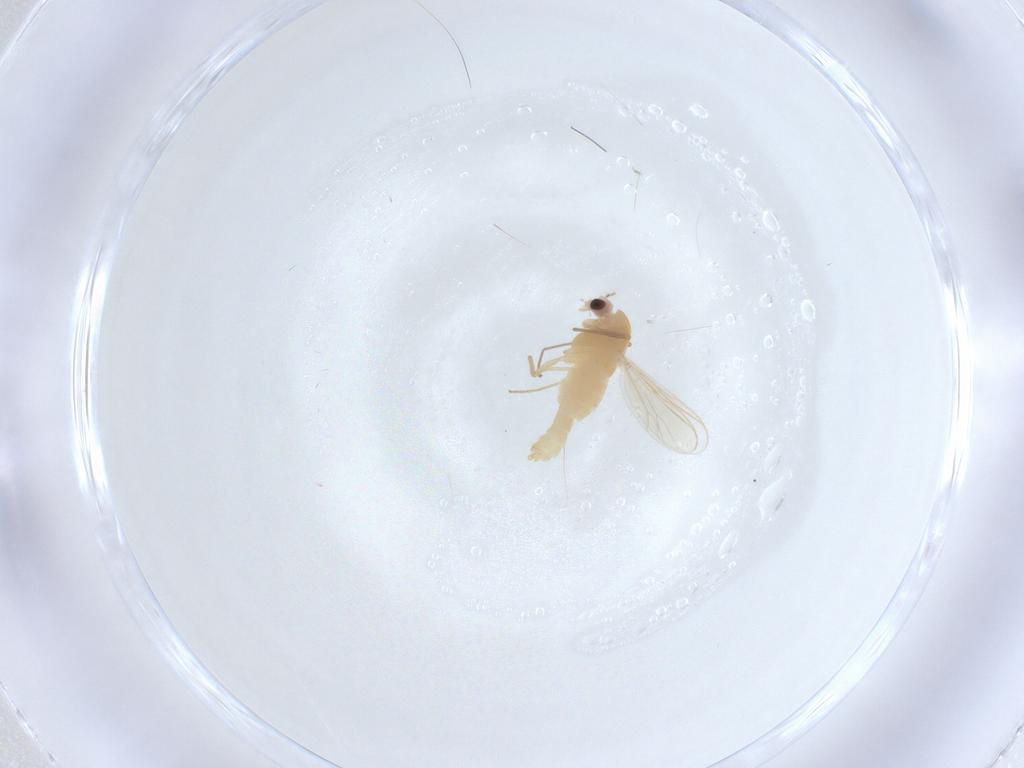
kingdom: Animalia
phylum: Arthropoda
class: Insecta
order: Diptera
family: Chironomidae
